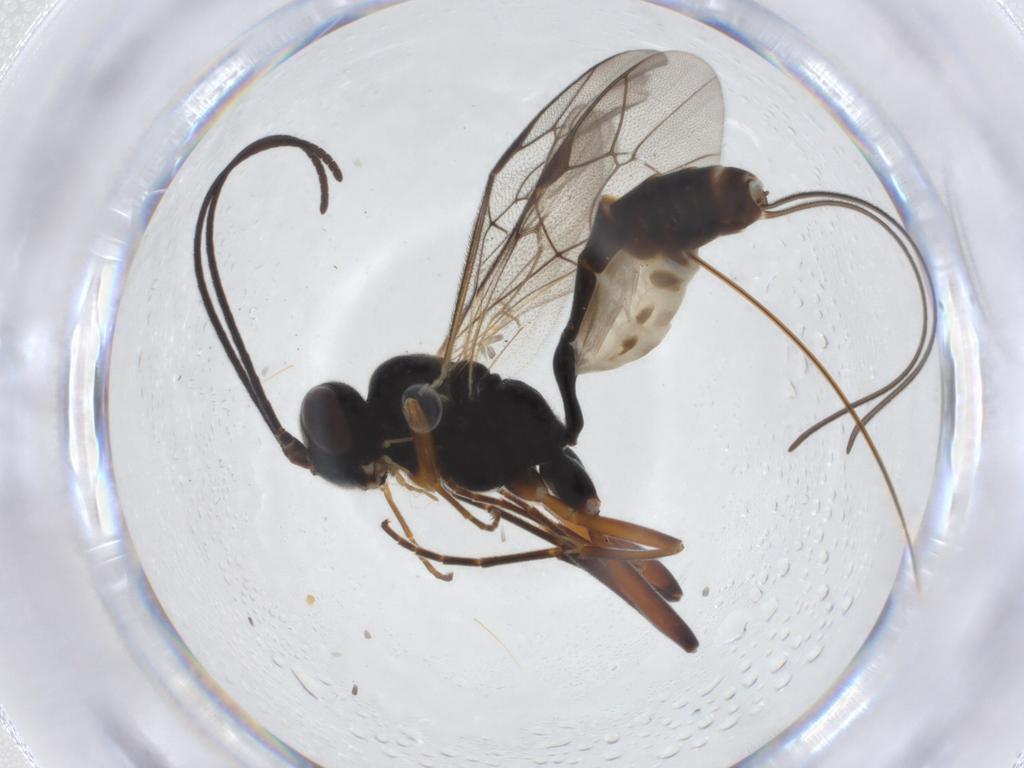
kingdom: Animalia
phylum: Arthropoda
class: Insecta
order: Hymenoptera
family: Ichneumonidae
